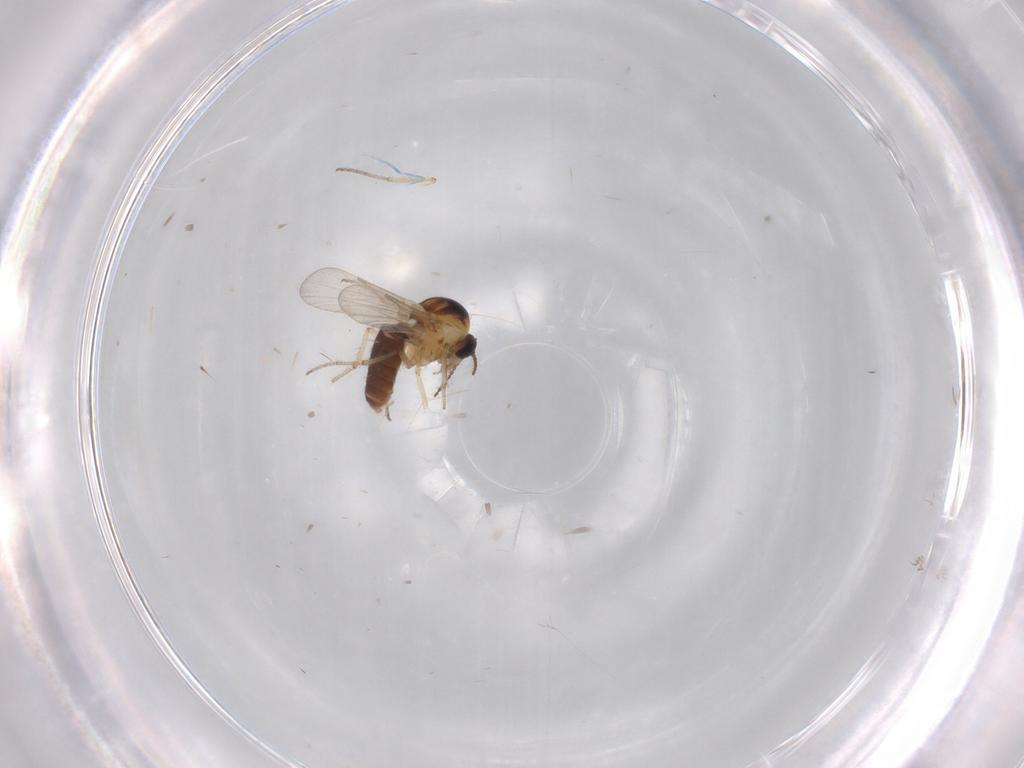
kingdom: Animalia
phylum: Arthropoda
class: Insecta
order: Diptera
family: Ceratopogonidae
